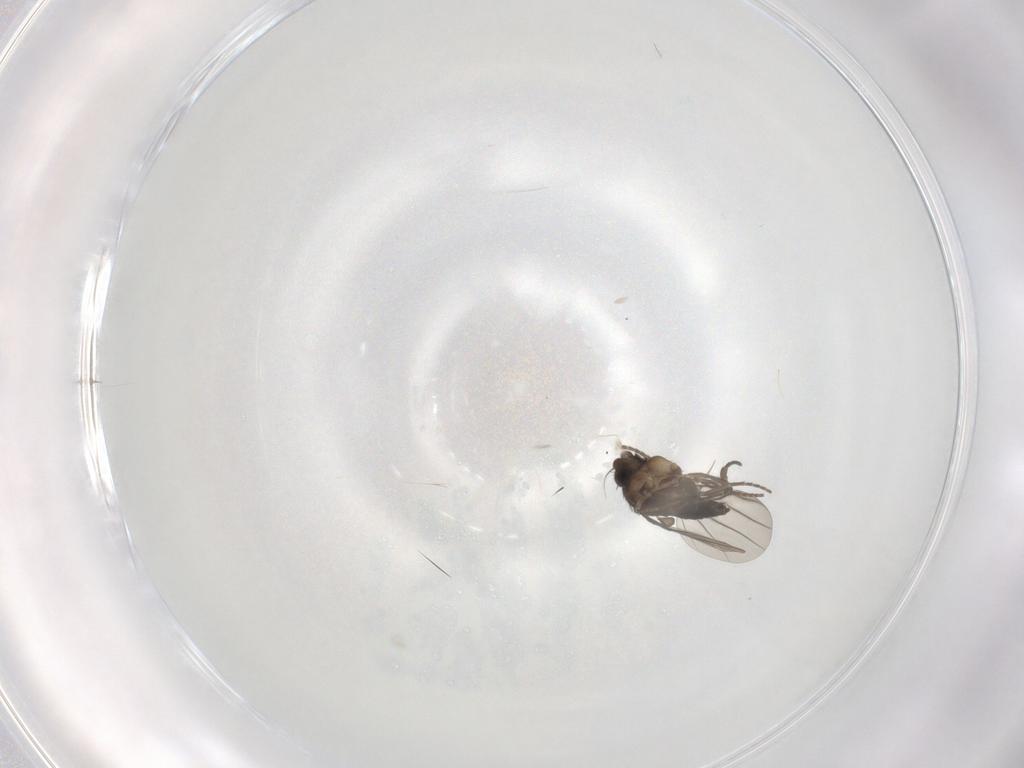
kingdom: Animalia
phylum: Arthropoda
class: Insecta
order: Diptera
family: Phoridae
